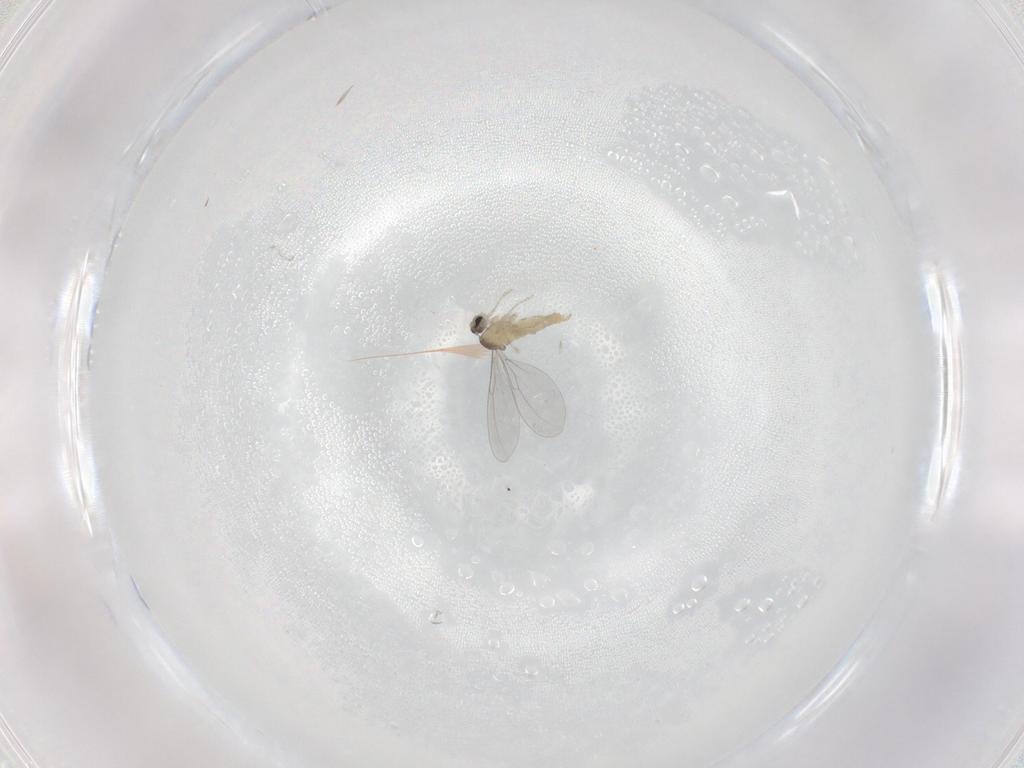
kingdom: Animalia
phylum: Arthropoda
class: Insecta
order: Diptera
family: Cecidomyiidae
